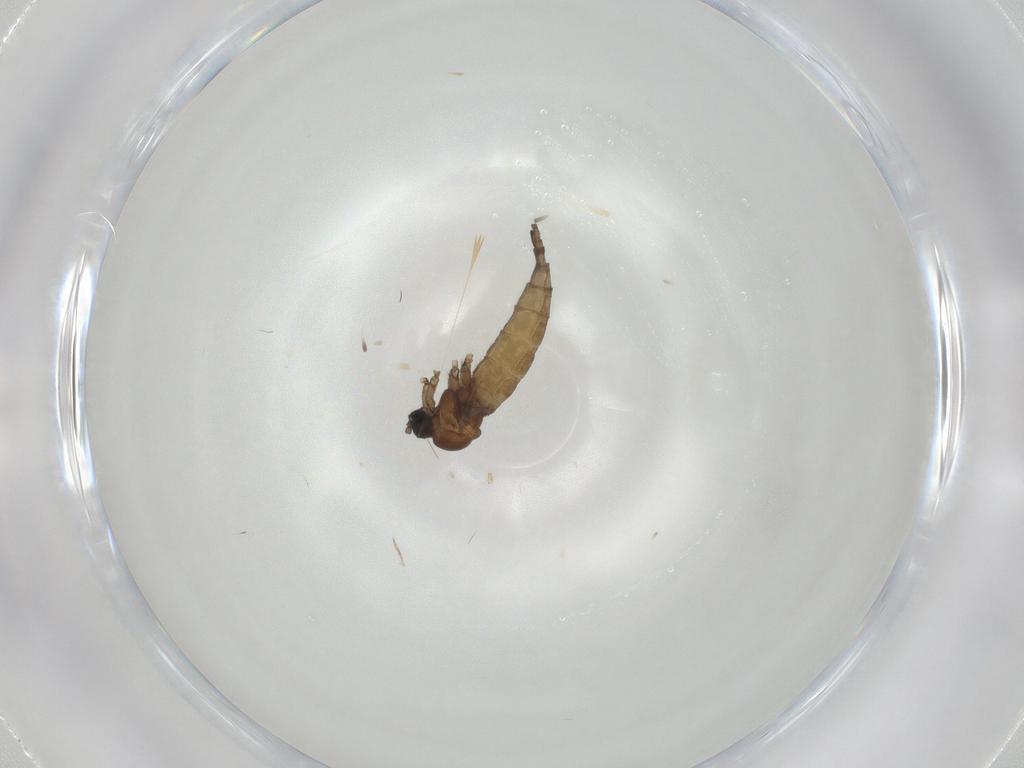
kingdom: Animalia
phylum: Arthropoda
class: Insecta
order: Diptera
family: Sciaridae
